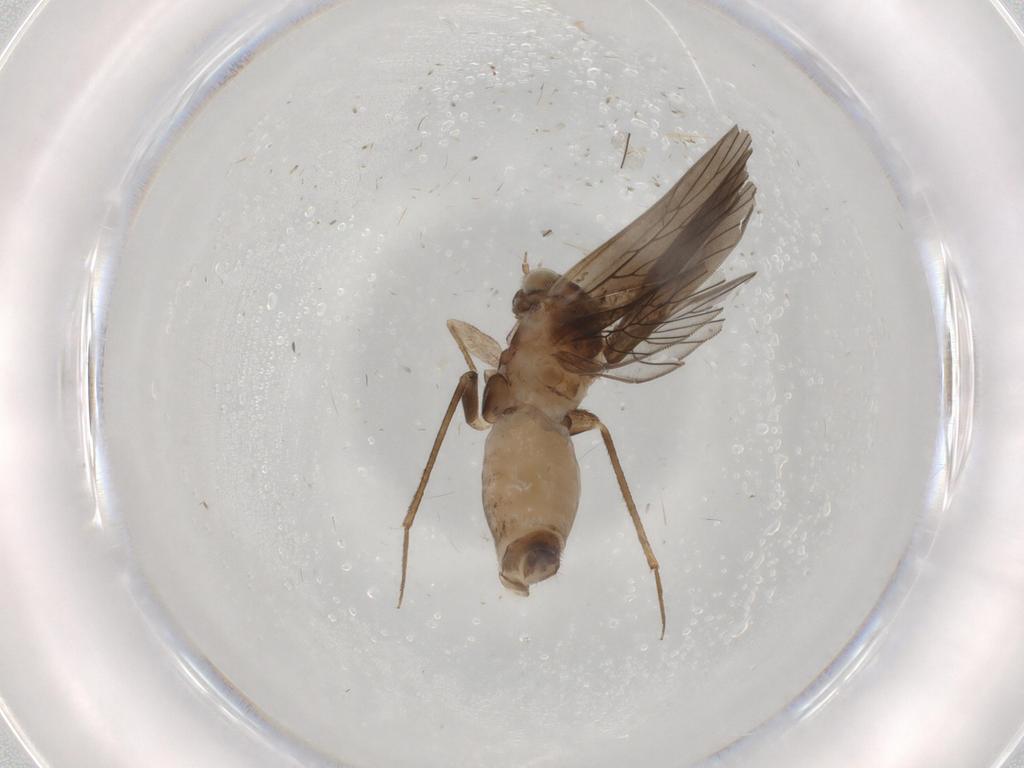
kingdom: Animalia
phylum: Arthropoda
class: Insecta
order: Psocodea
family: Lepidopsocidae
